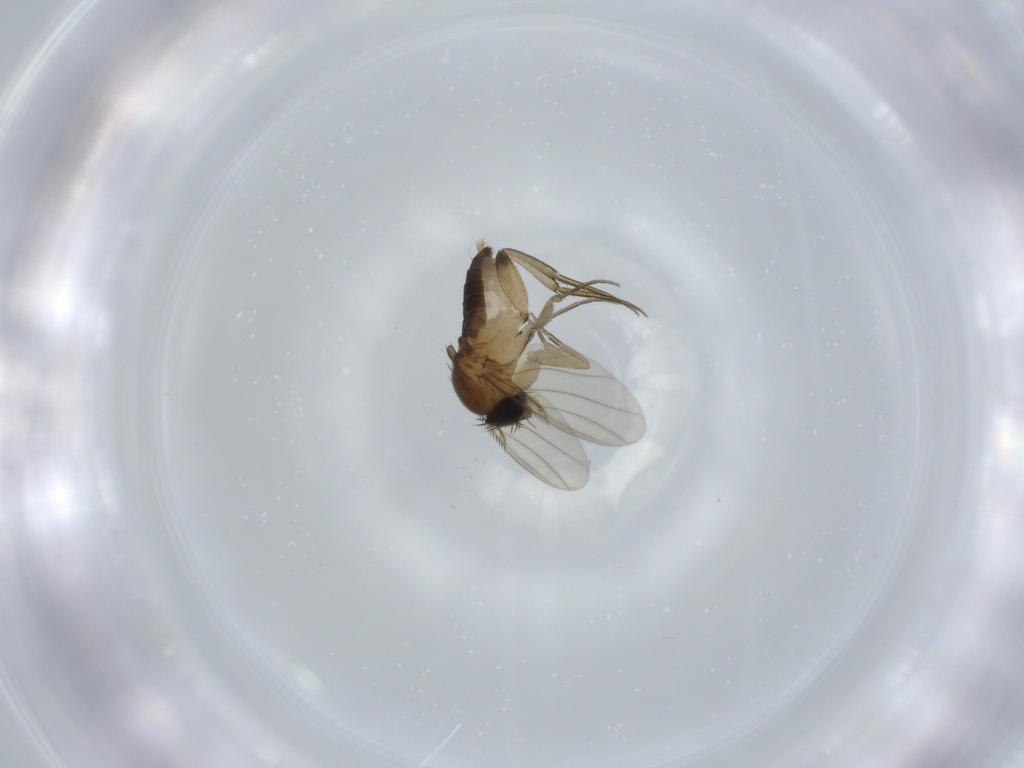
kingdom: Animalia
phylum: Arthropoda
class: Insecta
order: Diptera
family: Phoridae
